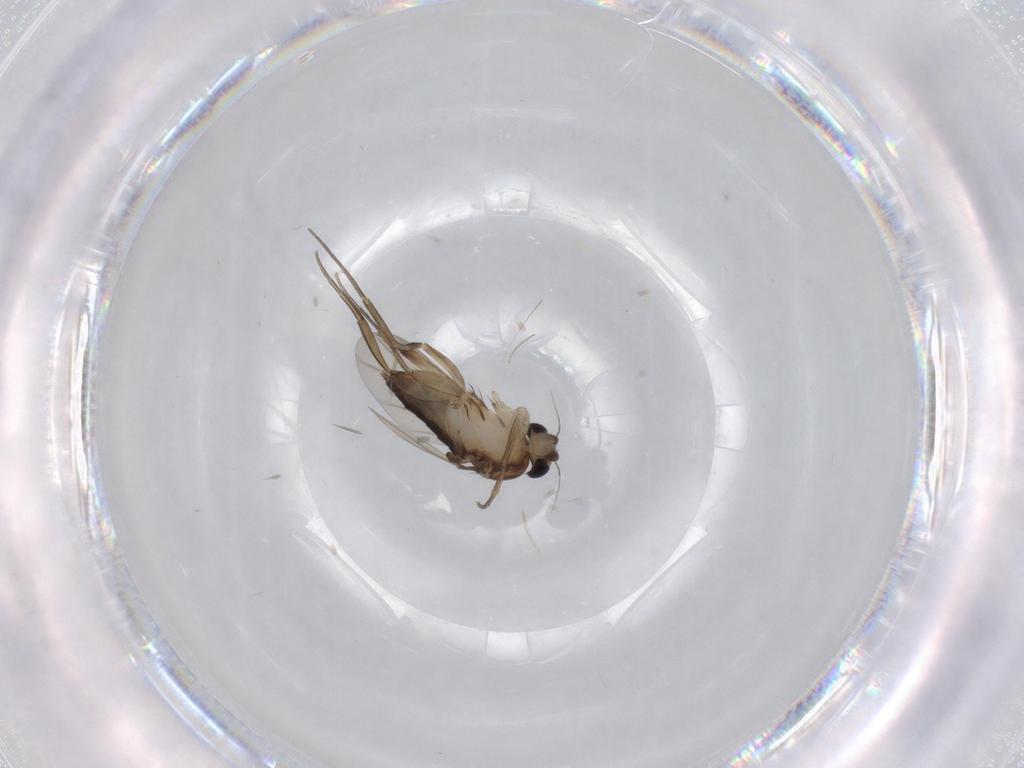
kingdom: Animalia
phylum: Arthropoda
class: Insecta
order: Diptera
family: Phoridae
